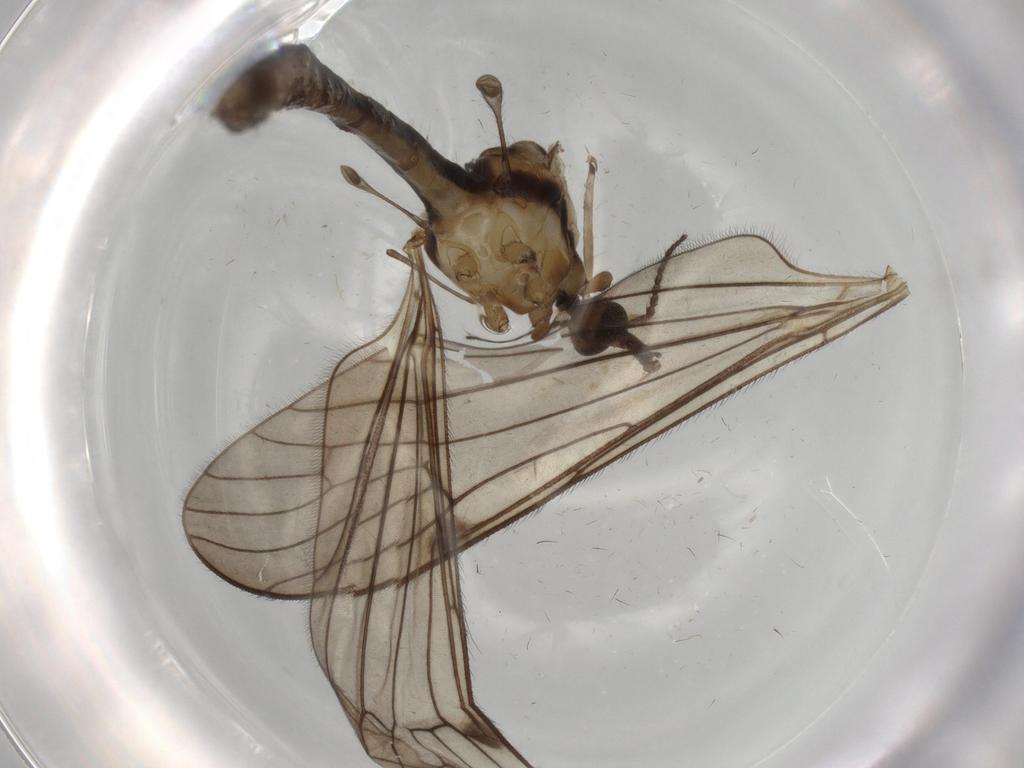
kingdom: Animalia
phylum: Arthropoda
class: Insecta
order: Diptera
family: Limoniidae
